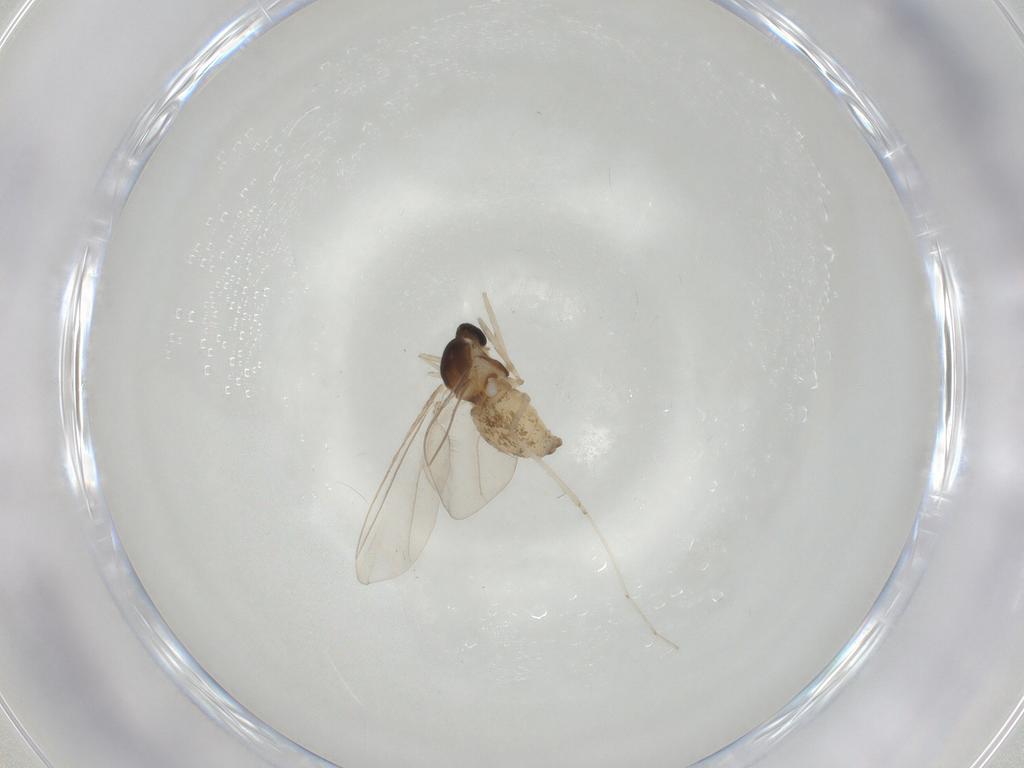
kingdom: Animalia
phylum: Arthropoda
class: Insecta
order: Diptera
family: Cecidomyiidae
